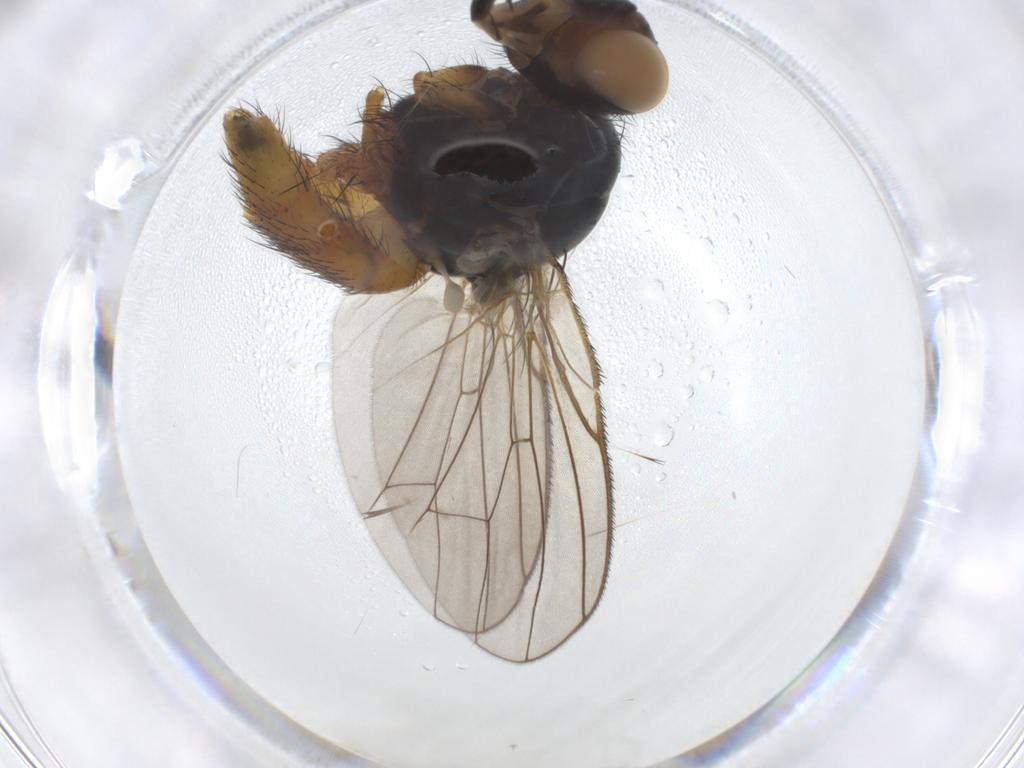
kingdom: Animalia
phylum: Arthropoda
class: Insecta
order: Diptera
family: Anthomyiidae
